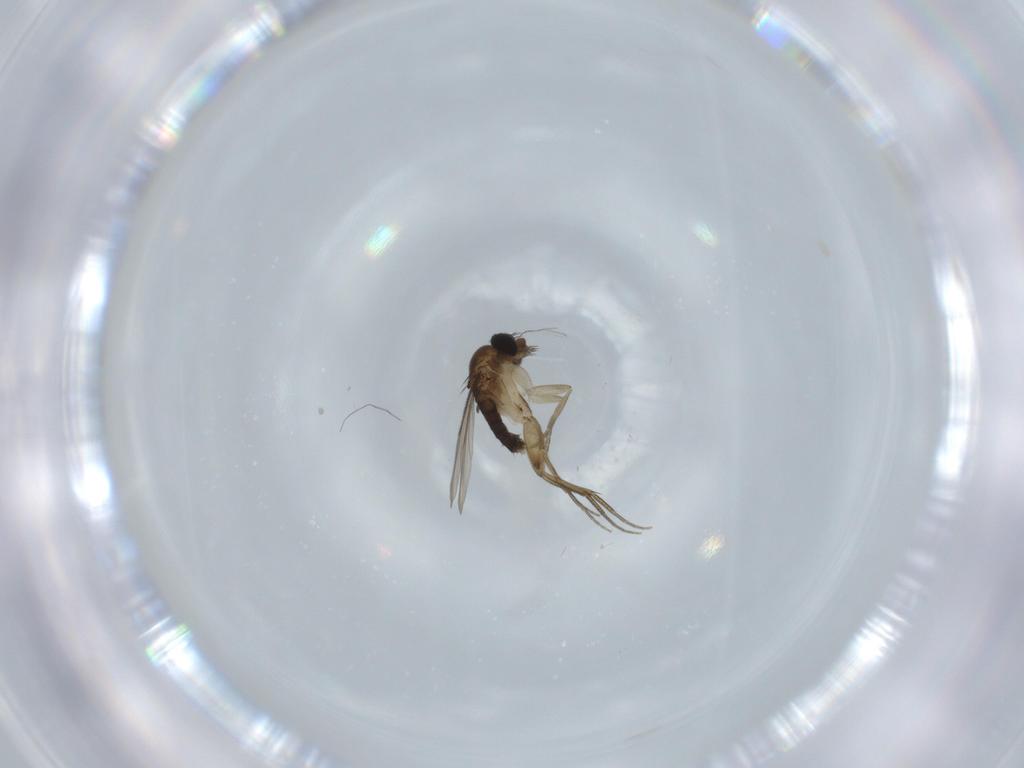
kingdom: Animalia
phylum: Arthropoda
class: Insecta
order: Diptera
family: Phoridae
